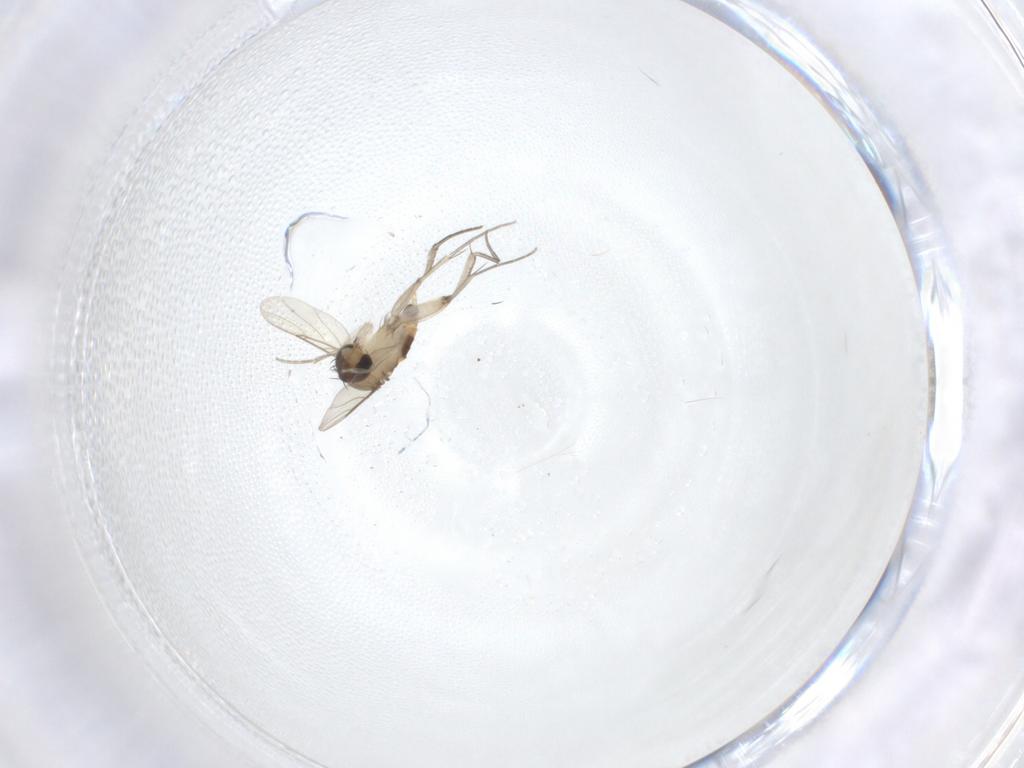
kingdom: Animalia
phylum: Arthropoda
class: Insecta
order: Diptera
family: Phoridae
